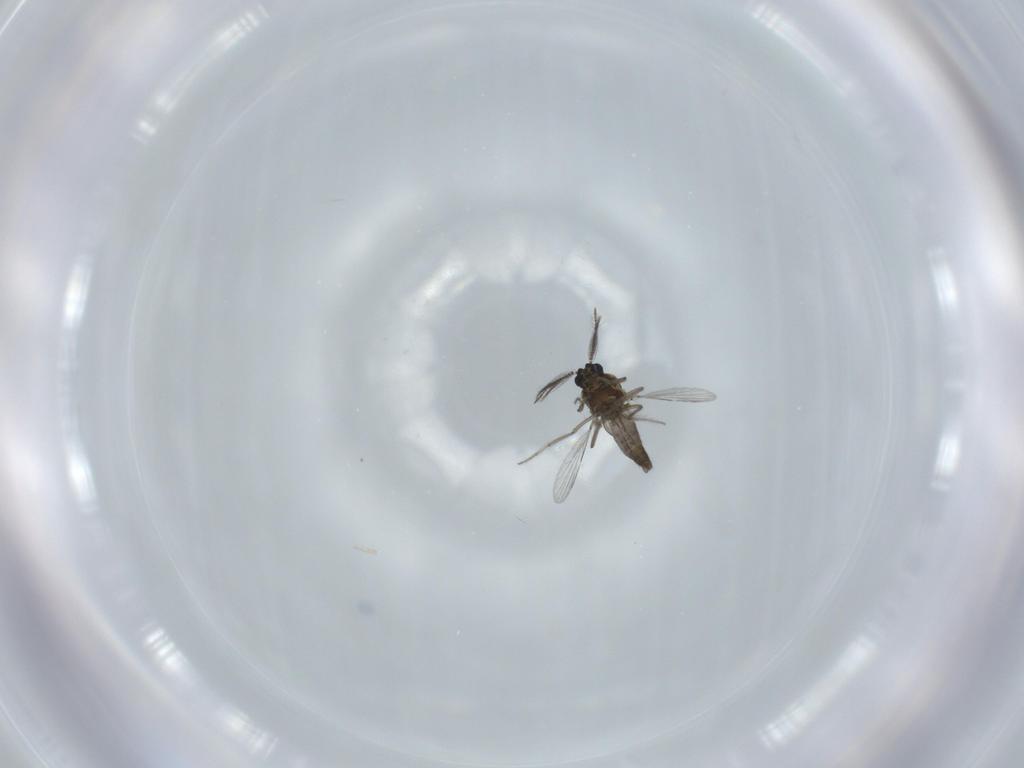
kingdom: Animalia
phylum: Arthropoda
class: Insecta
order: Diptera
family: Ceratopogonidae
